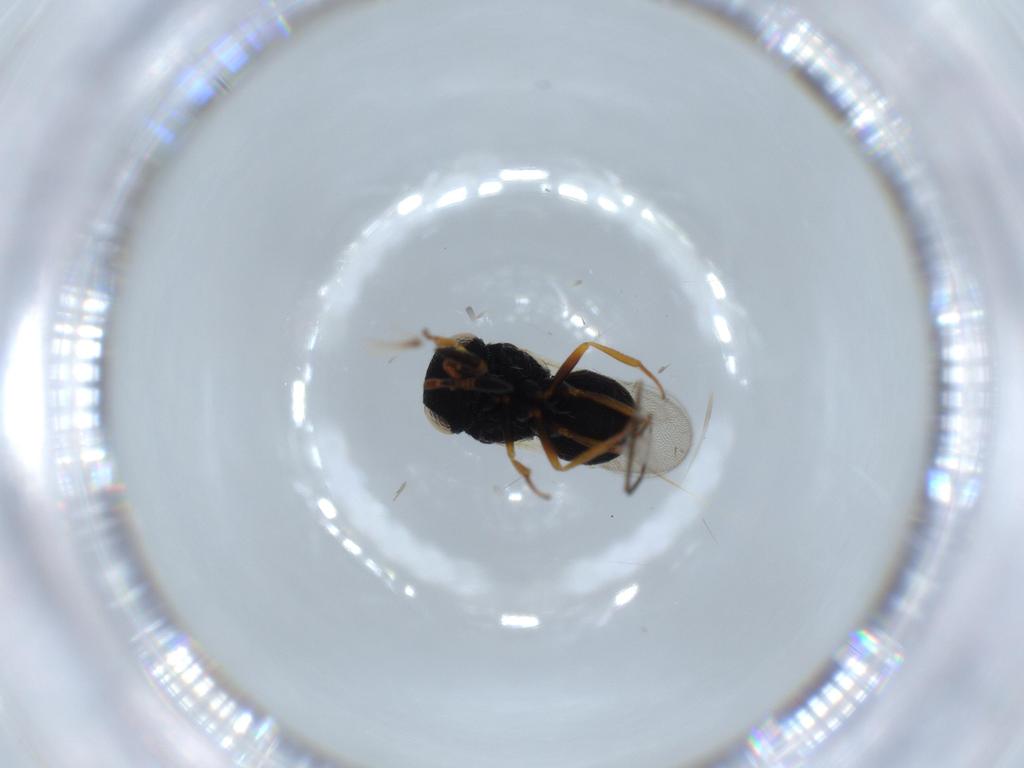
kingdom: Animalia
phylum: Arthropoda
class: Insecta
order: Hymenoptera
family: Scelionidae
